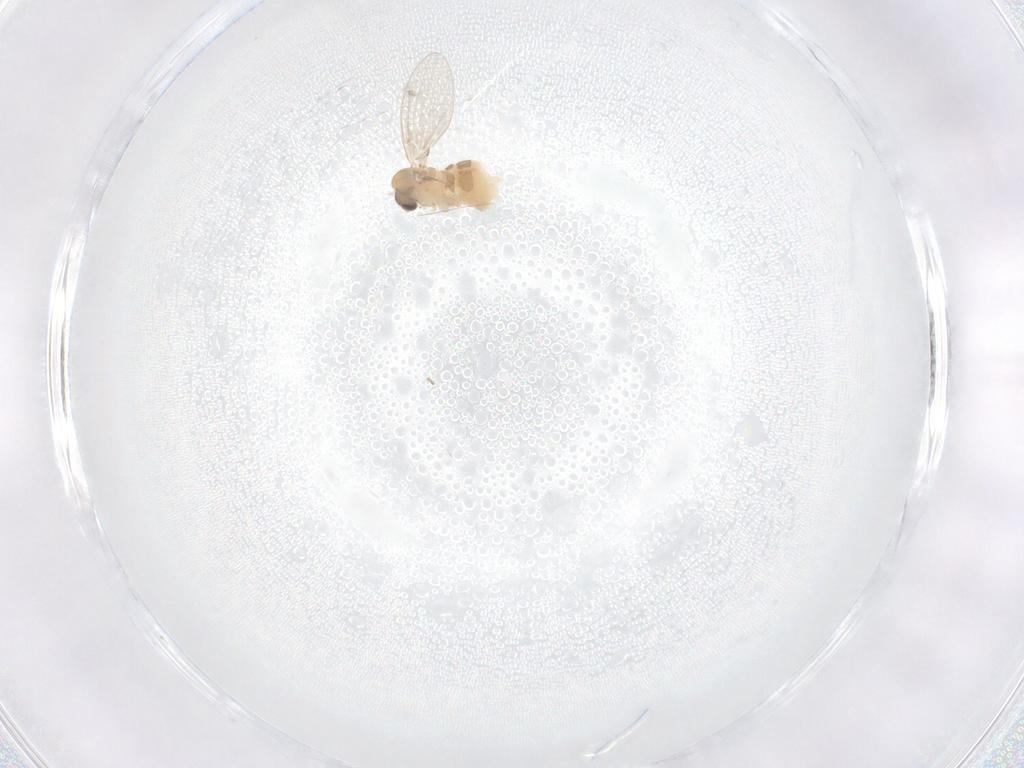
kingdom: Animalia
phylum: Arthropoda
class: Insecta
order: Diptera
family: Psychodidae
